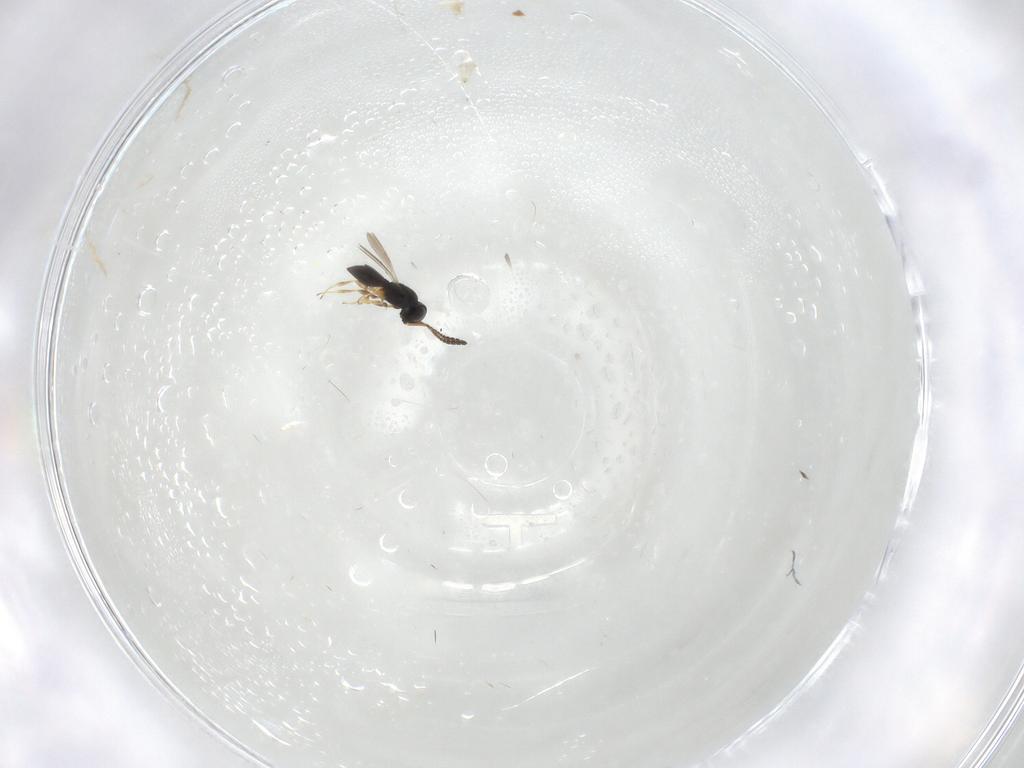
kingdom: Animalia
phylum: Arthropoda
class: Insecta
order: Hymenoptera
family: Scelionidae
